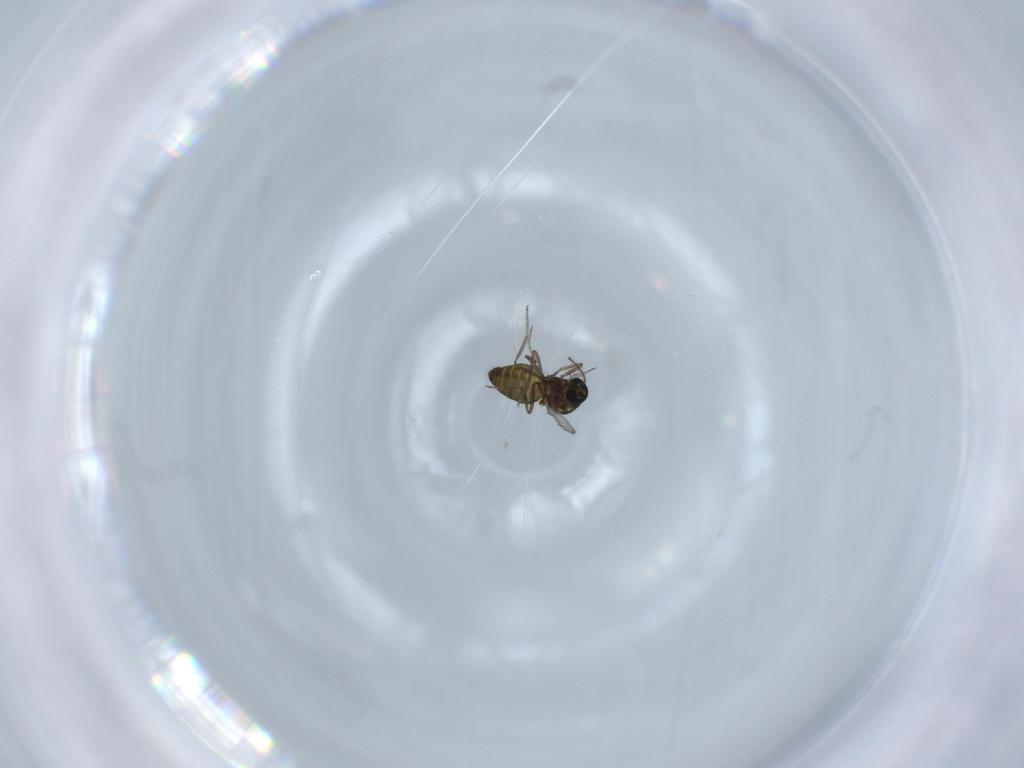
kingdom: Animalia
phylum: Arthropoda
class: Insecta
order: Diptera
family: Ceratopogonidae
